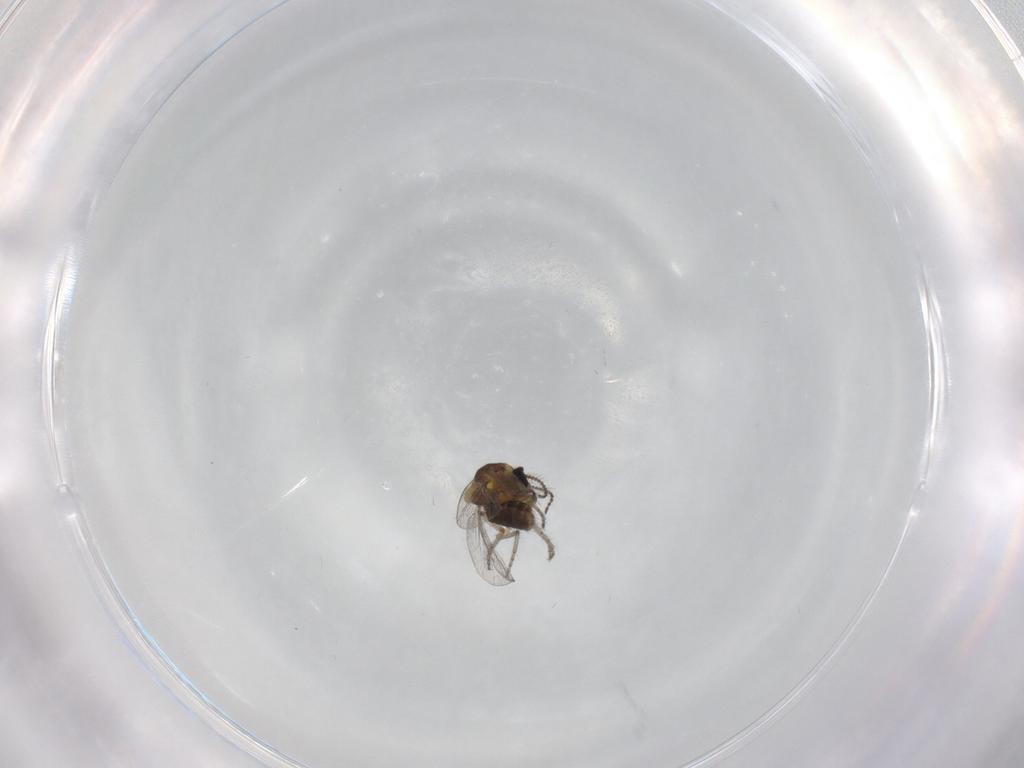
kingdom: Animalia
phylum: Arthropoda
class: Insecta
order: Diptera
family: Ceratopogonidae
